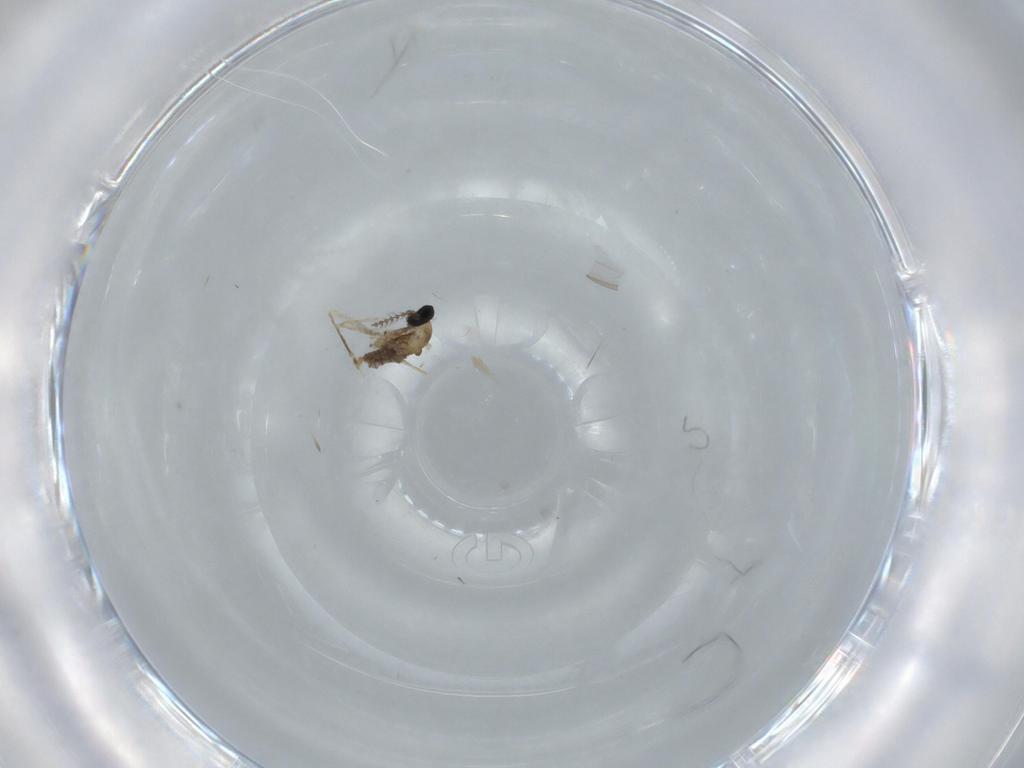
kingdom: Animalia
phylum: Arthropoda
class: Insecta
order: Diptera
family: Cecidomyiidae
